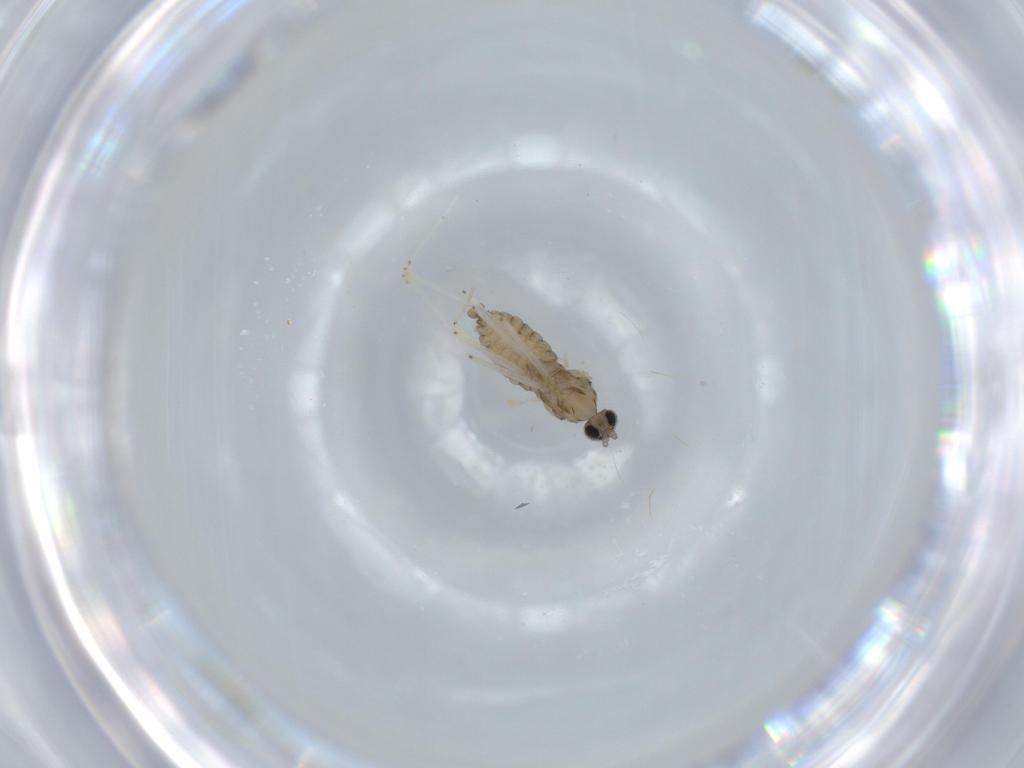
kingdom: Animalia
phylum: Arthropoda
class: Insecta
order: Diptera
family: Cecidomyiidae
